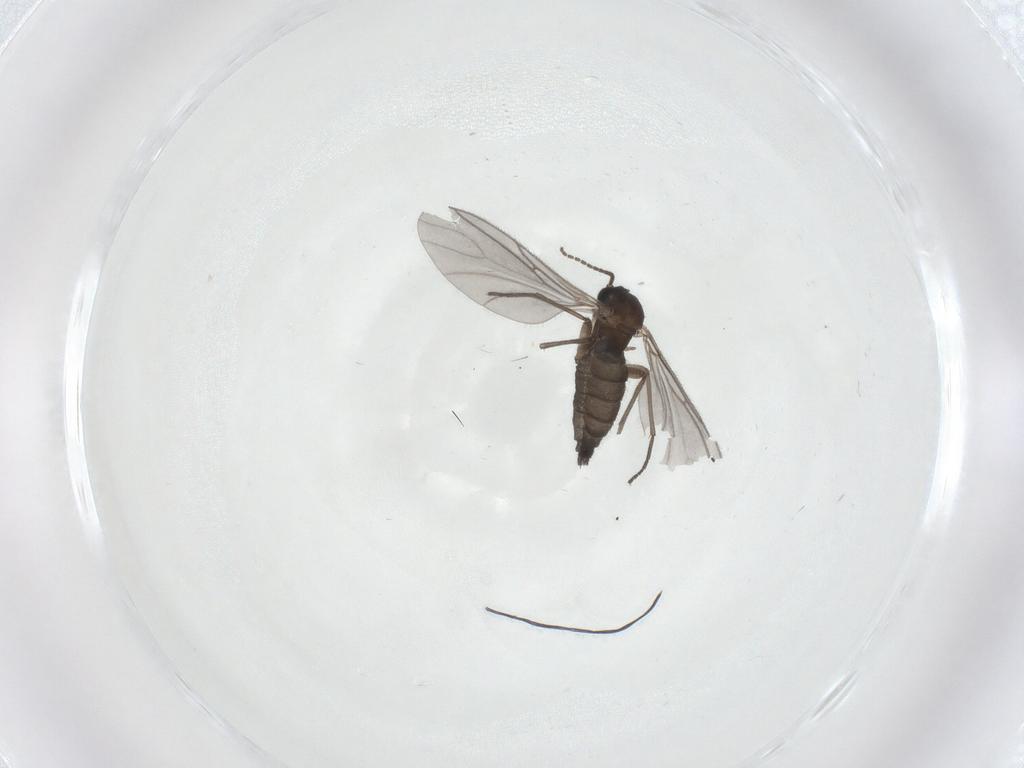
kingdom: Animalia
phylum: Arthropoda
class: Insecta
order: Diptera
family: Sciaridae
